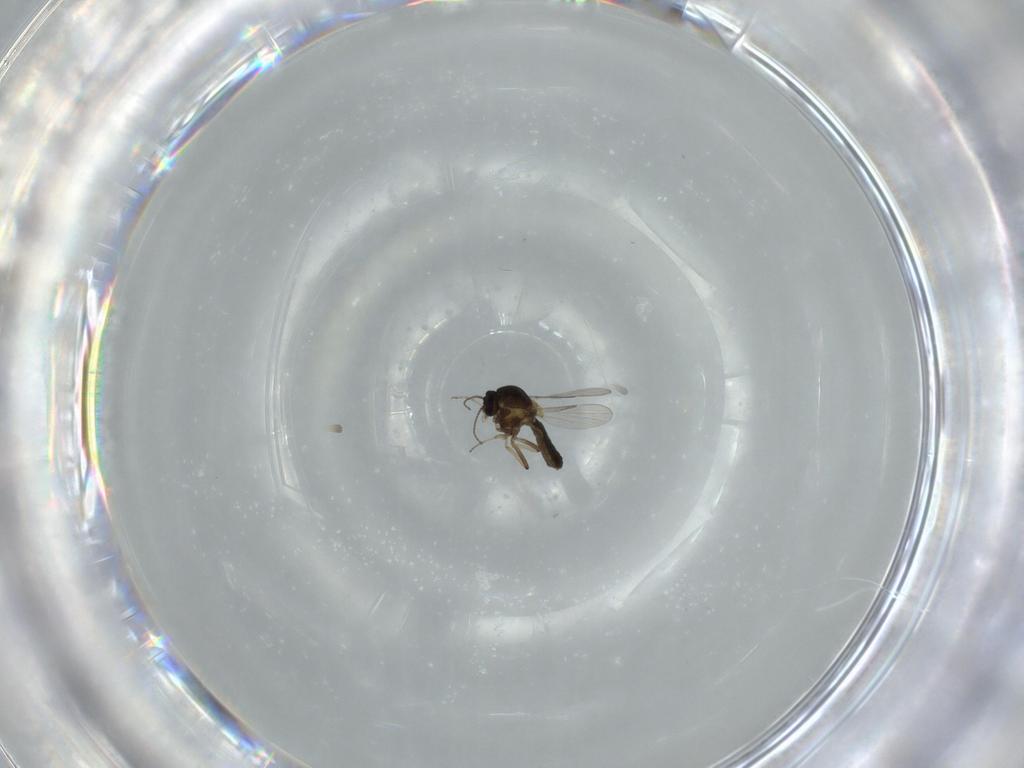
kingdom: Animalia
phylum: Arthropoda
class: Insecta
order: Diptera
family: Ceratopogonidae
